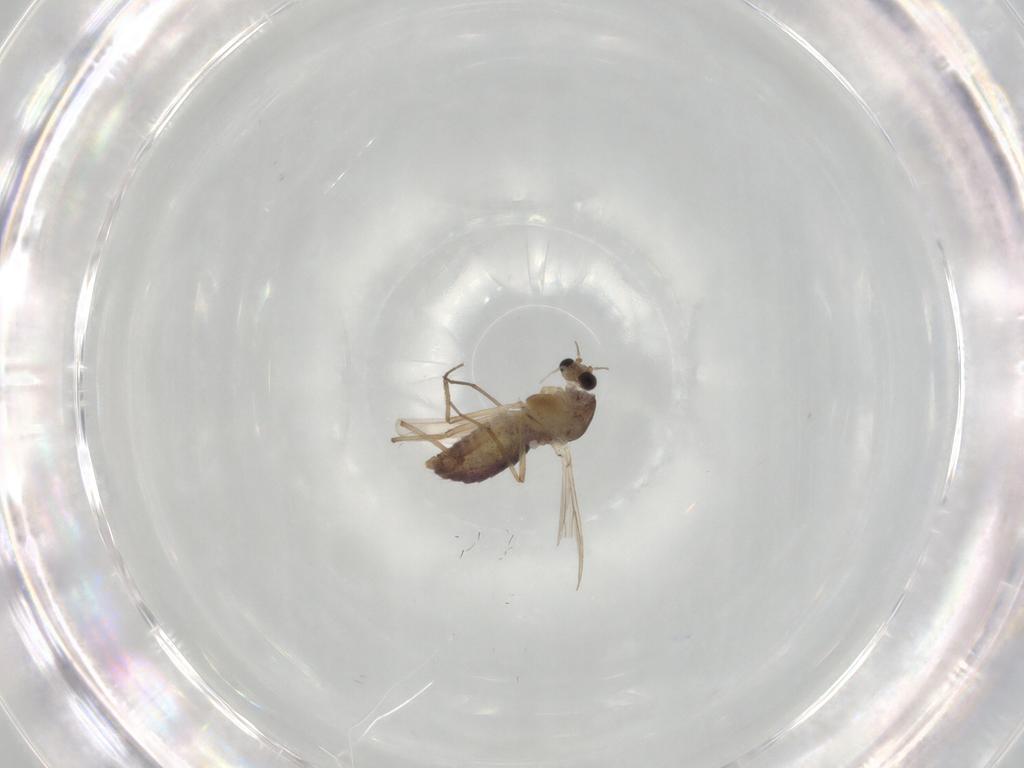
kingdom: Animalia
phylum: Arthropoda
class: Insecta
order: Diptera
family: Chironomidae
